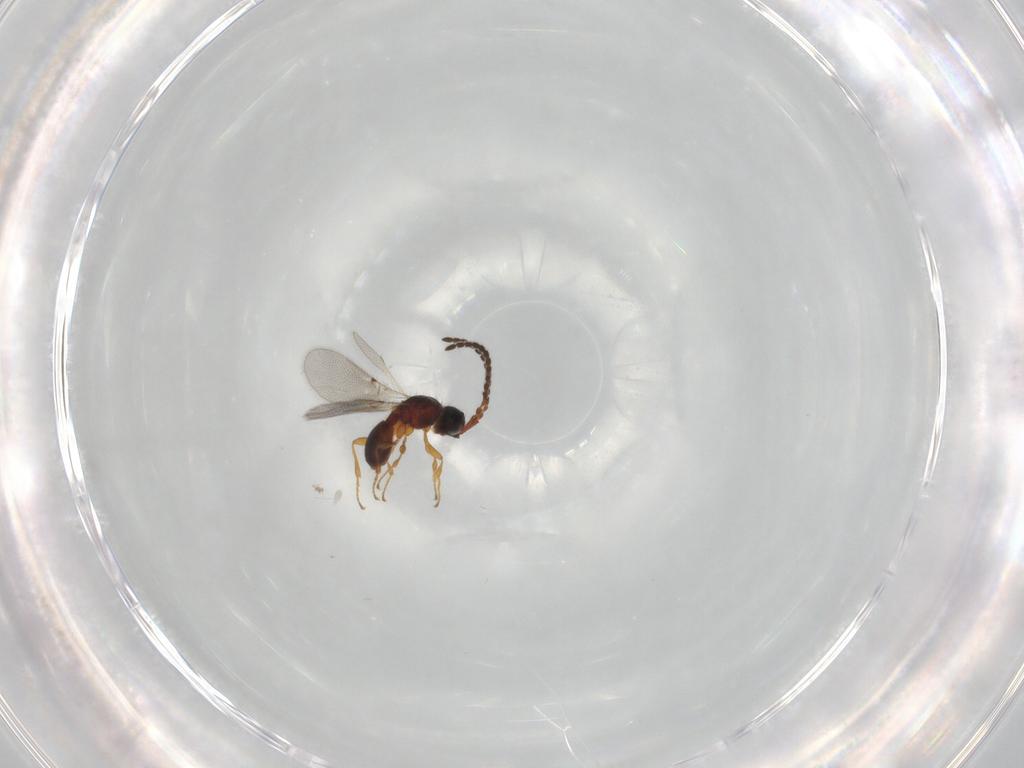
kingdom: Animalia
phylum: Arthropoda
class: Insecta
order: Hymenoptera
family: Diapriidae
